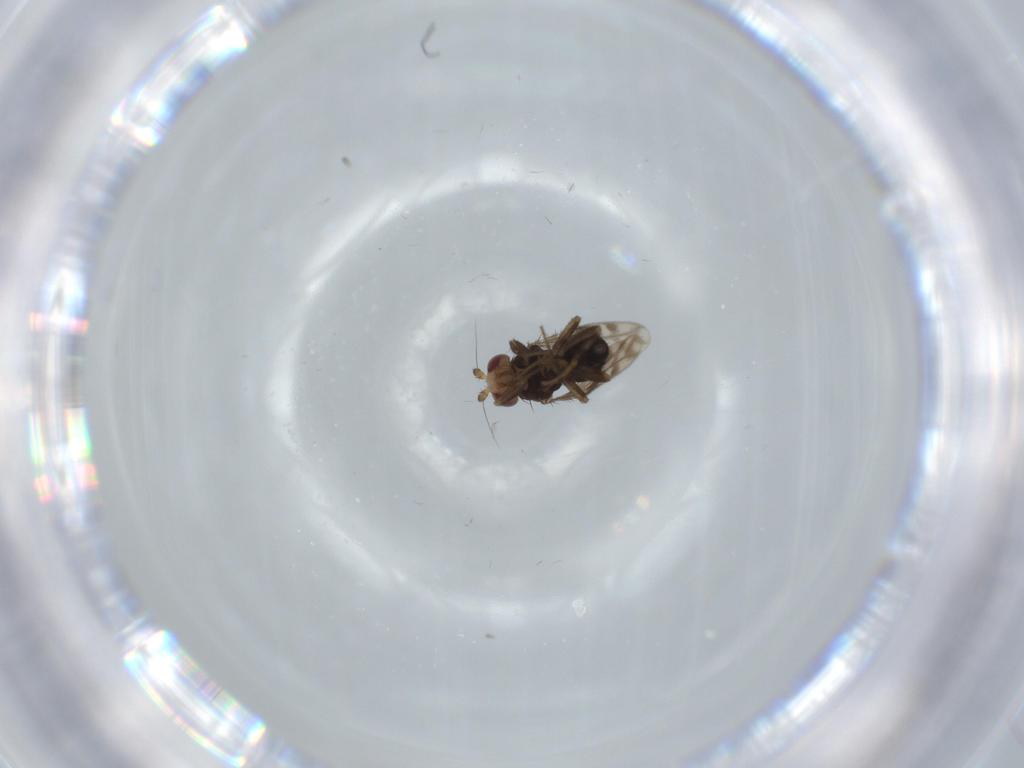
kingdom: Animalia
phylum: Arthropoda
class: Insecta
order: Diptera
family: Sphaeroceridae
